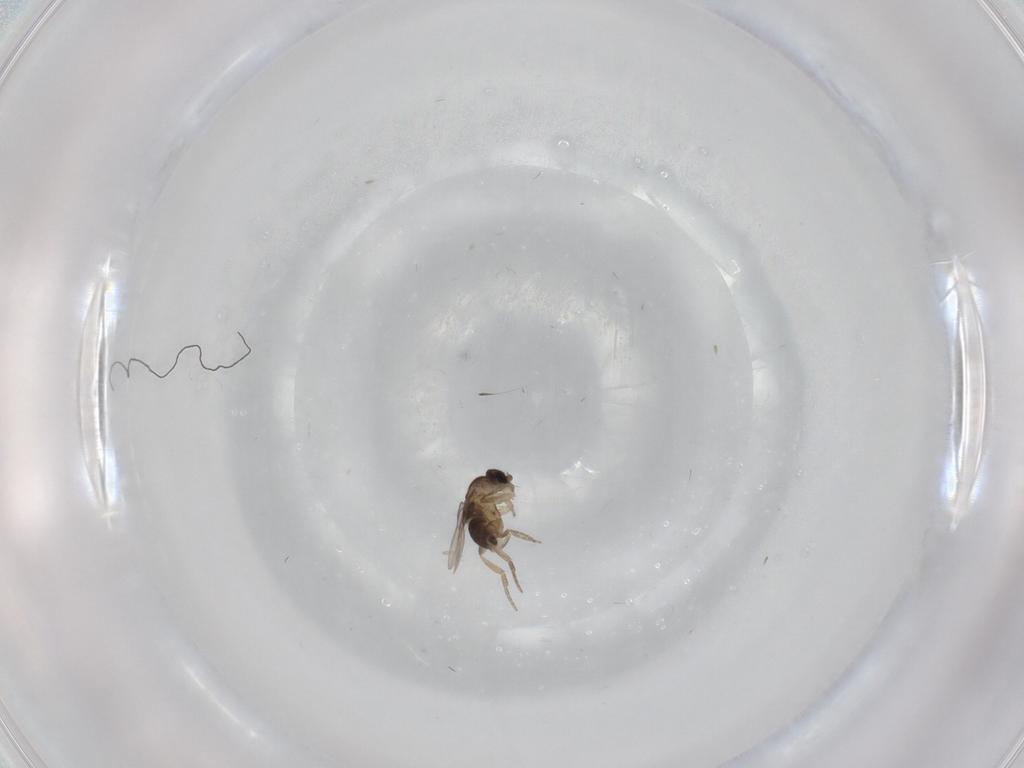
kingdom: Animalia
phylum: Arthropoda
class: Insecta
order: Diptera
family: Phoridae
